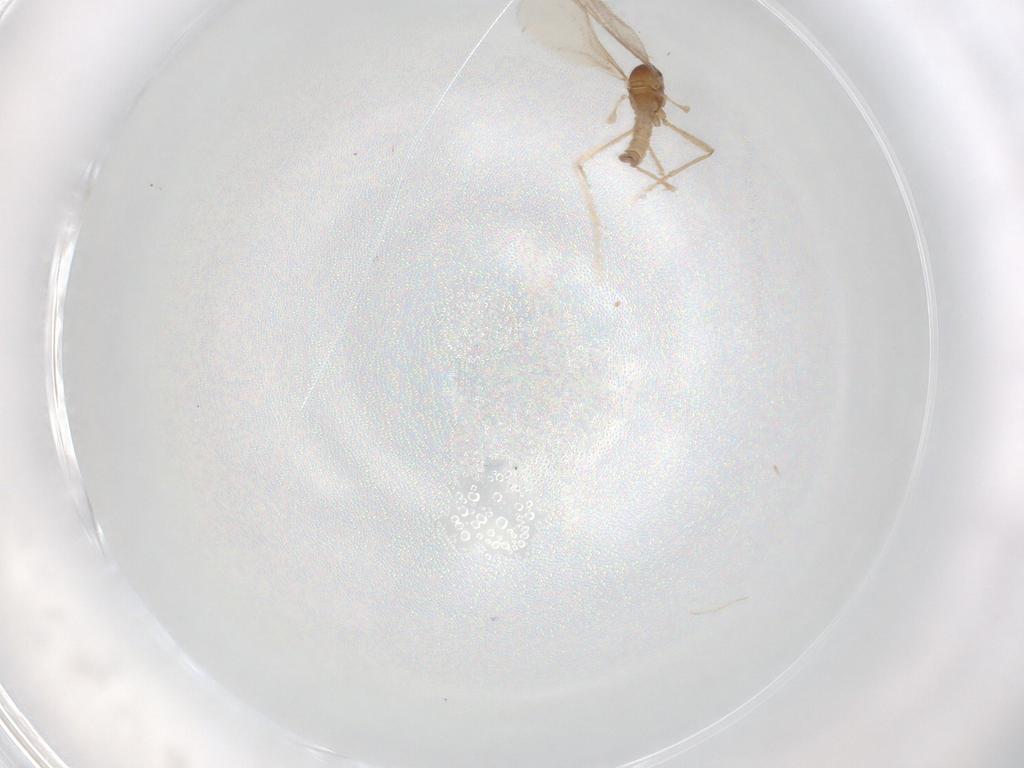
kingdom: Animalia
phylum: Arthropoda
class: Insecta
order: Diptera
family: Cecidomyiidae
